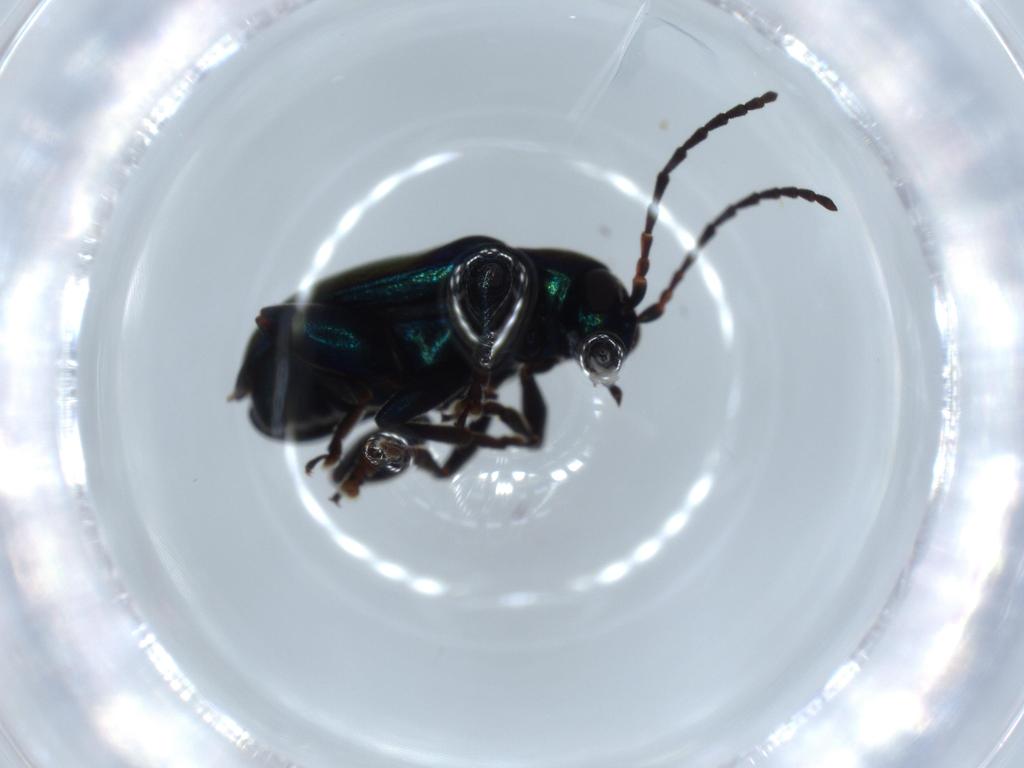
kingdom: Animalia
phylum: Arthropoda
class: Insecta
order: Coleoptera
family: Chrysomelidae
